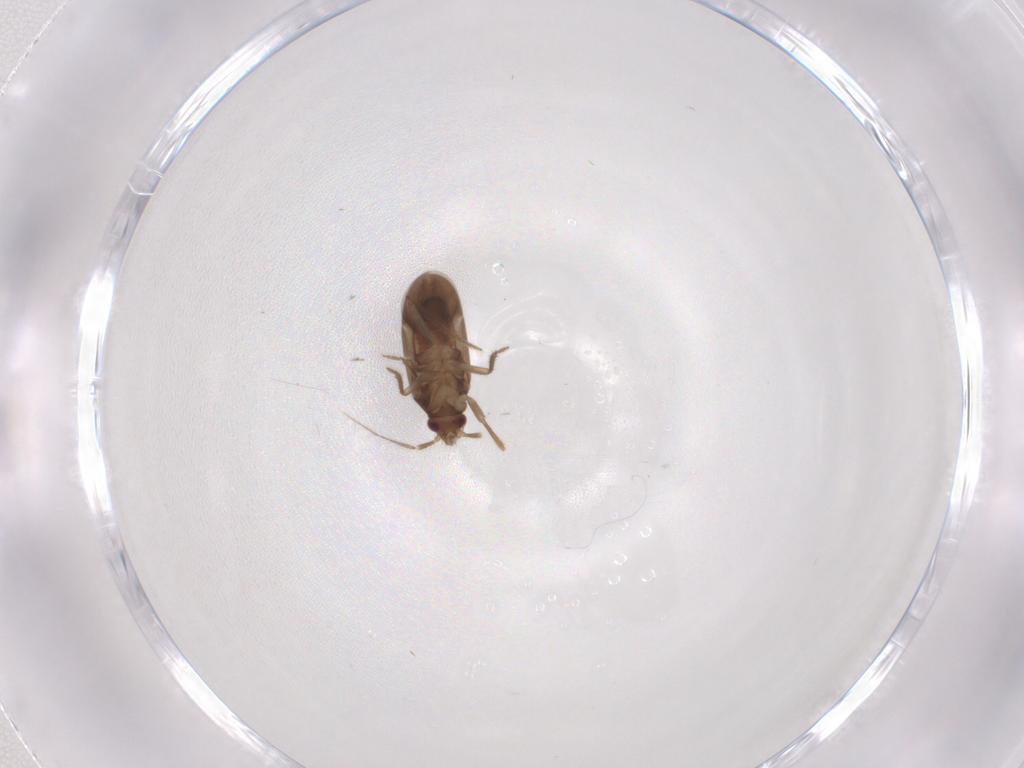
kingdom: Animalia
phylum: Arthropoda
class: Insecta
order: Hemiptera
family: Ceratocombidae
